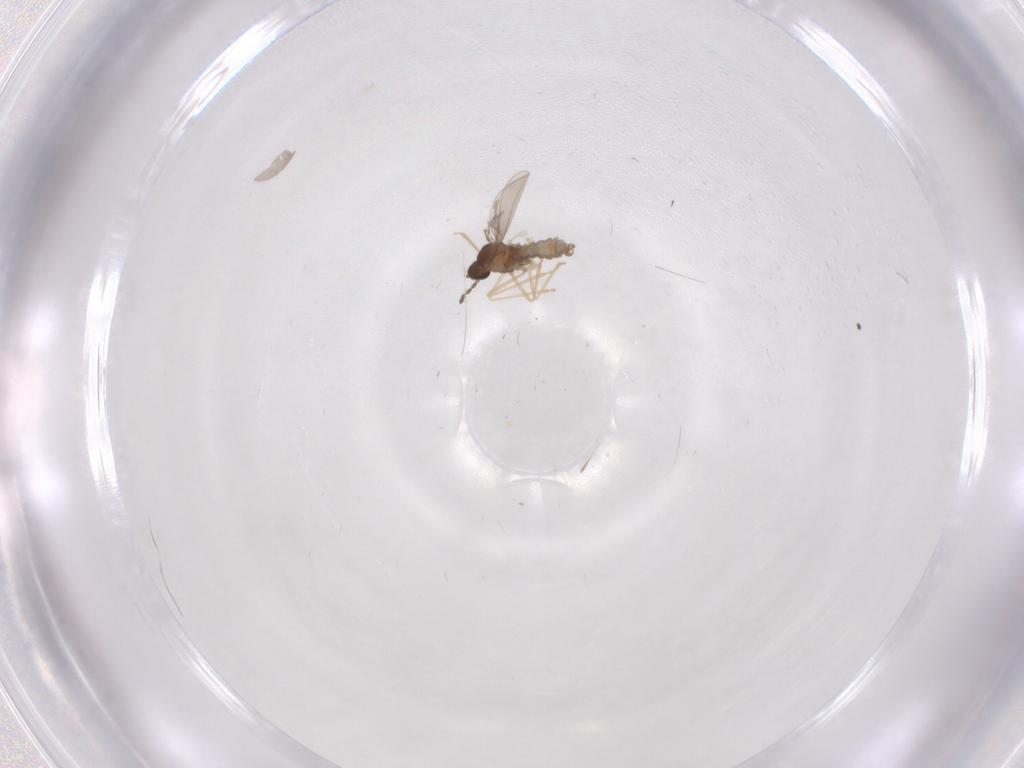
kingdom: Animalia
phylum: Arthropoda
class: Insecta
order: Diptera
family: Cecidomyiidae
